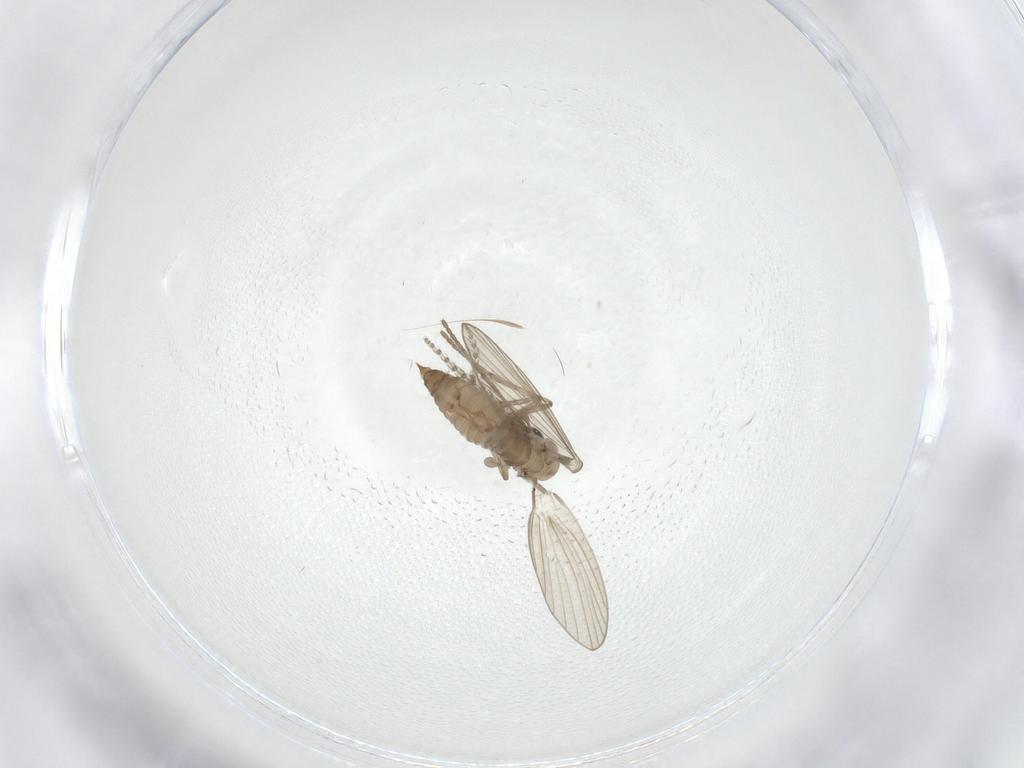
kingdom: Animalia
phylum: Arthropoda
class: Insecta
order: Diptera
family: Psychodidae
